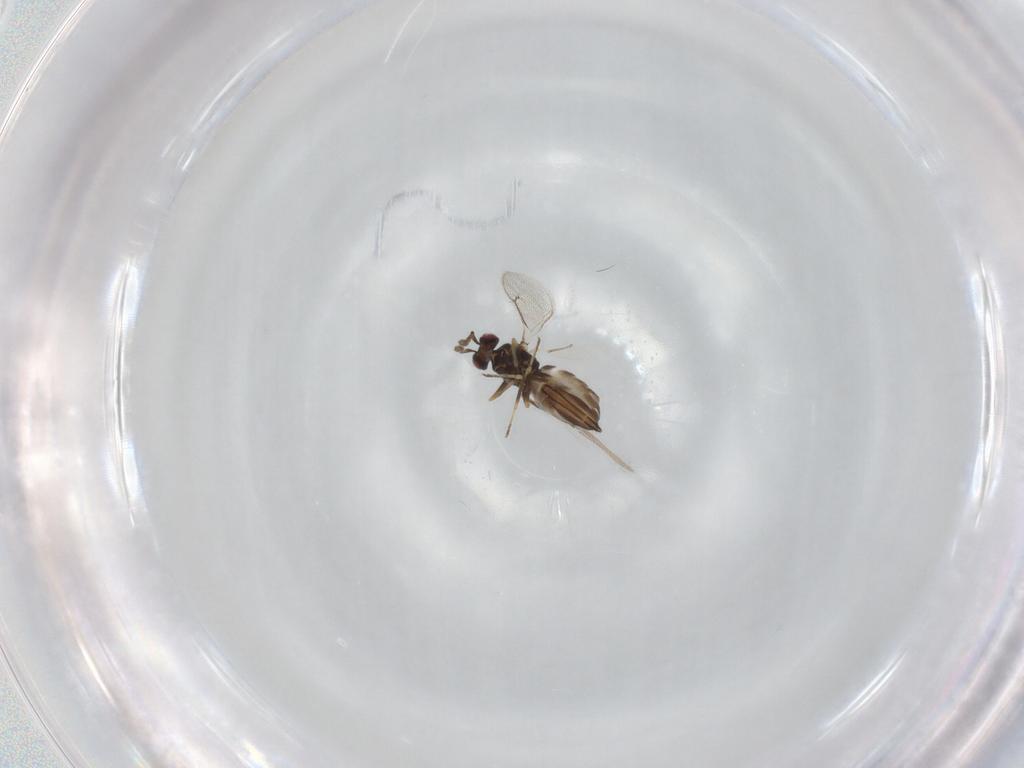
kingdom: Animalia
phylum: Arthropoda
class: Insecta
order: Hymenoptera
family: Eulophidae
